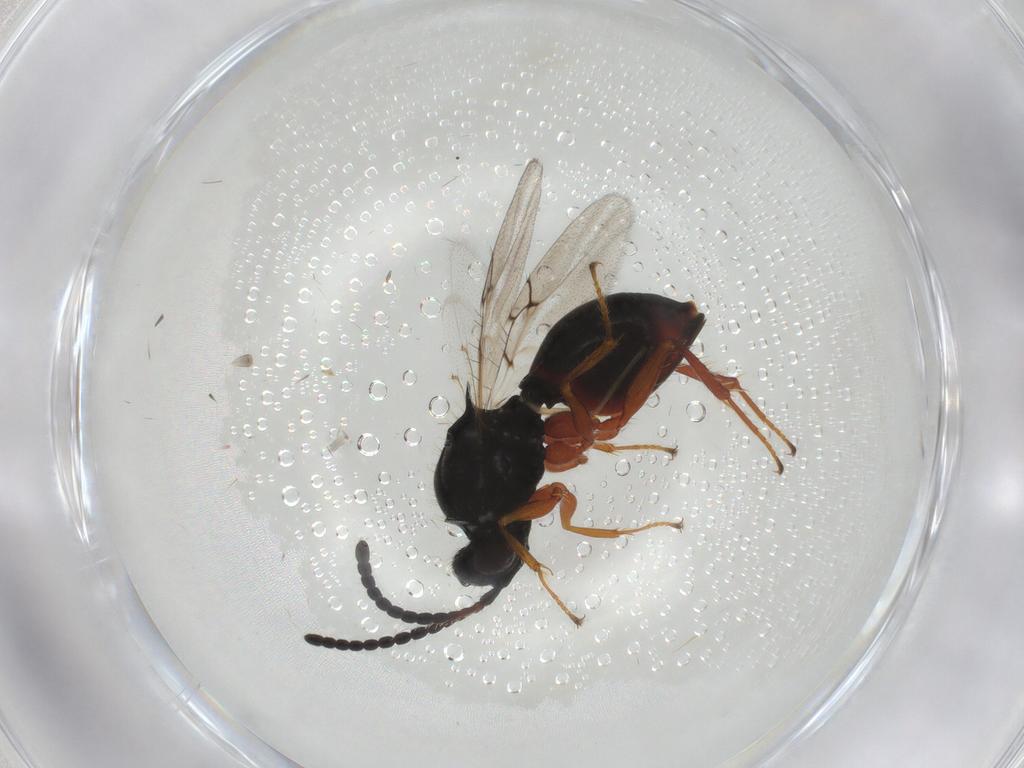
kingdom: Animalia
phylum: Arthropoda
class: Insecta
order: Hymenoptera
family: Figitidae
